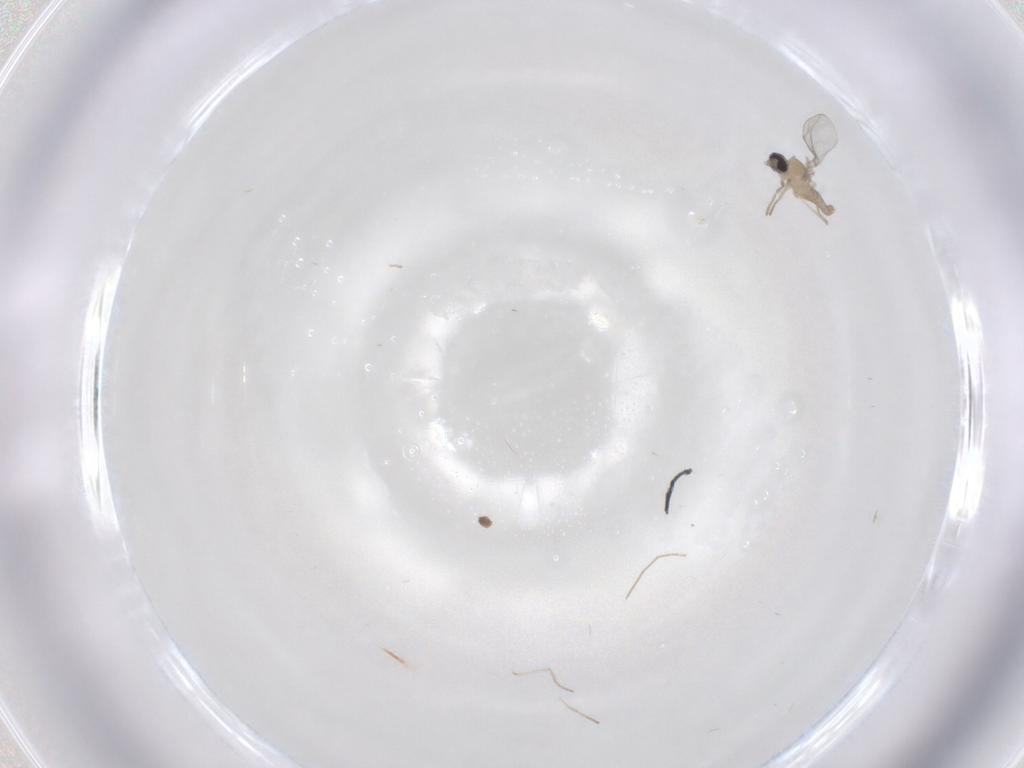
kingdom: Animalia
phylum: Arthropoda
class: Insecta
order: Diptera
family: Cecidomyiidae
